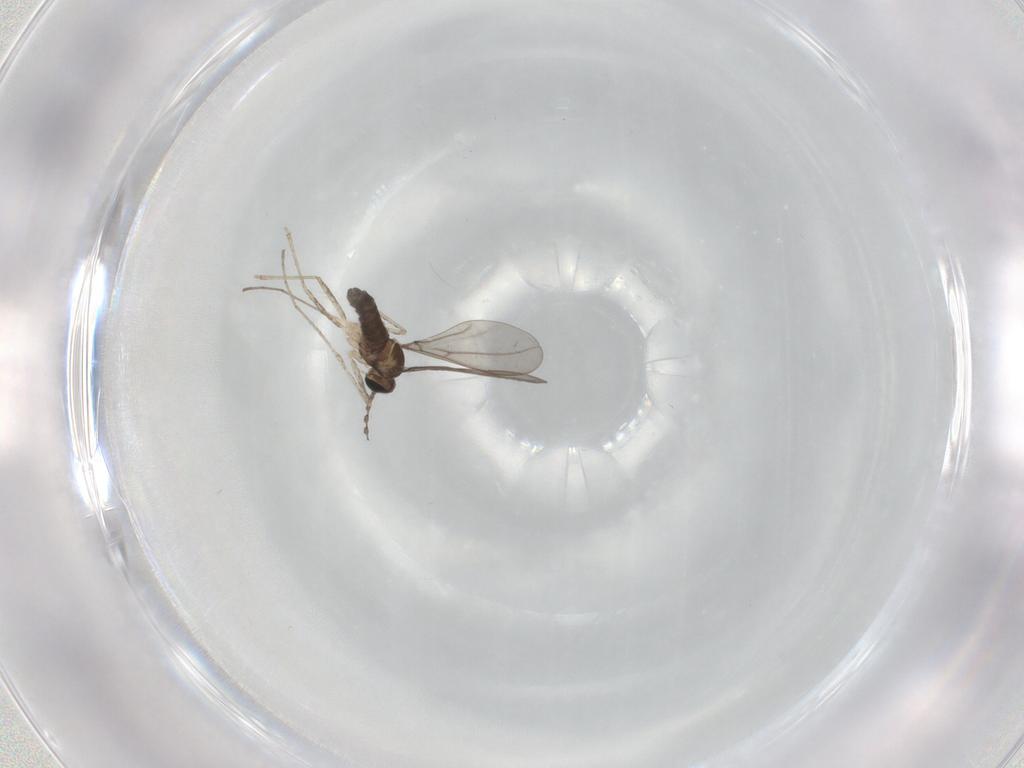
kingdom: Animalia
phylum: Arthropoda
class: Insecta
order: Diptera
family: Cecidomyiidae
